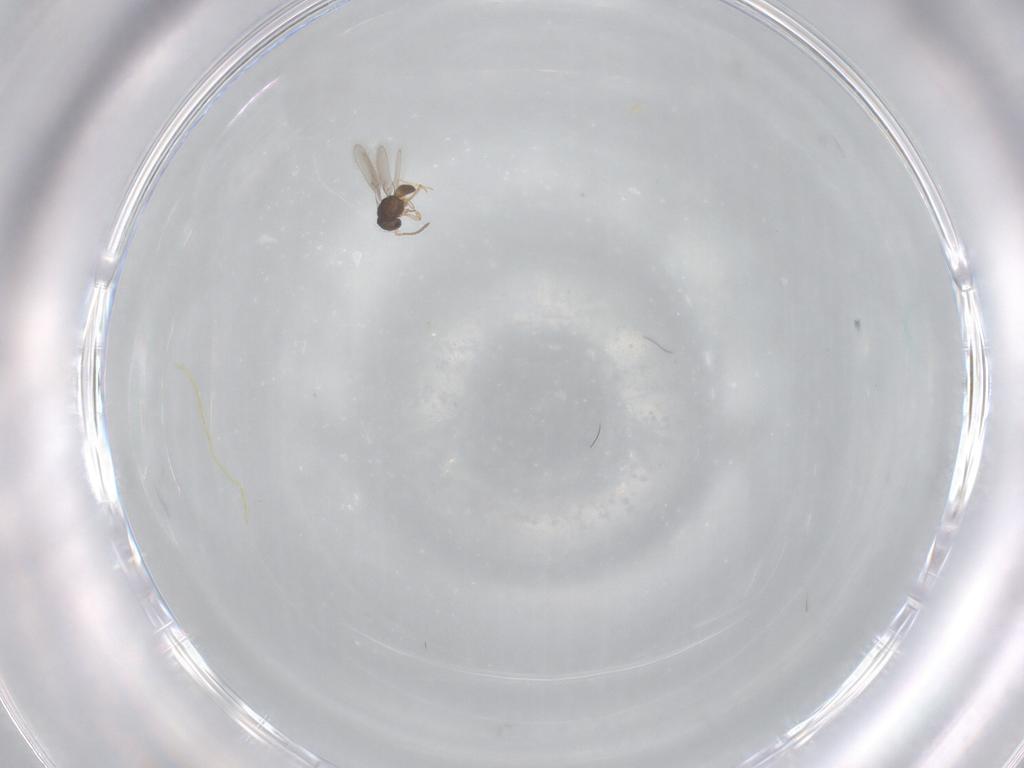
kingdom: Animalia
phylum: Arthropoda
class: Insecta
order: Hymenoptera
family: Scelionidae
